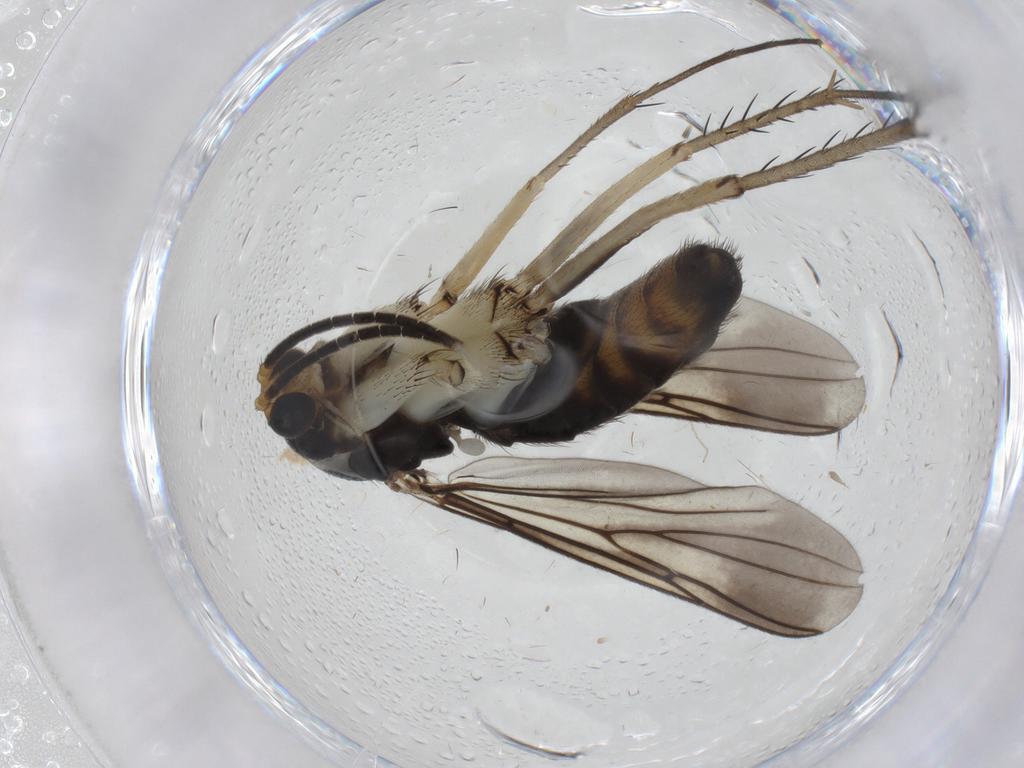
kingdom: Animalia
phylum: Arthropoda
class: Insecta
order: Diptera
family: Mycetophilidae
